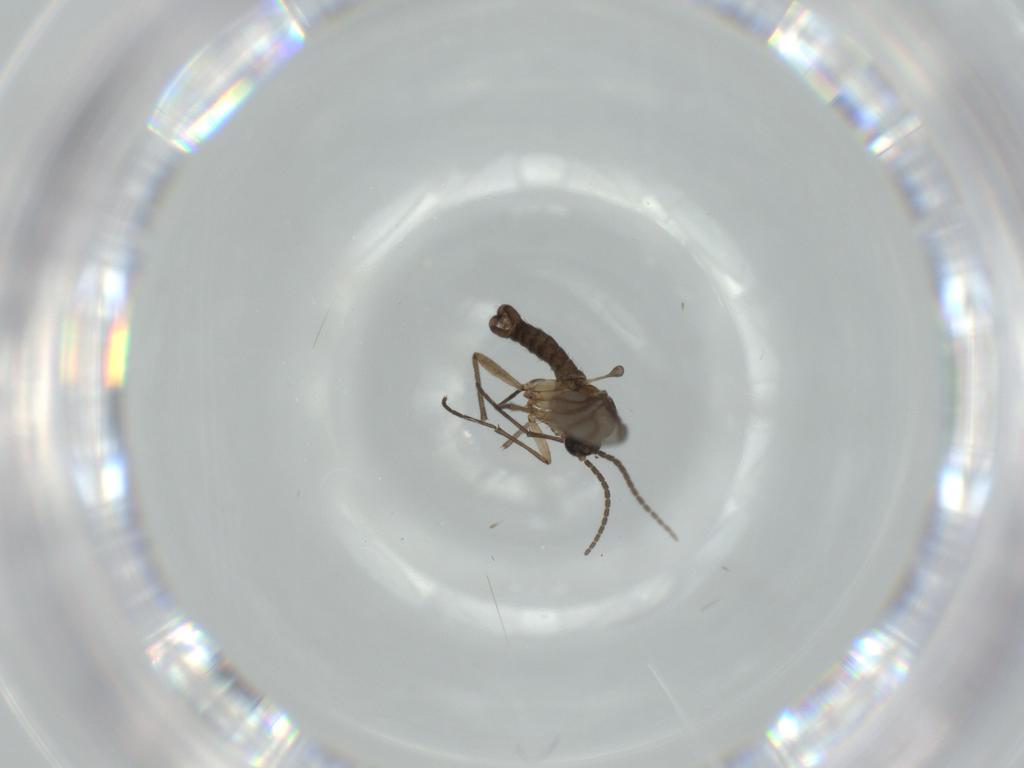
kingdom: Animalia
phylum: Arthropoda
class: Insecta
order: Diptera
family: Sciaridae
